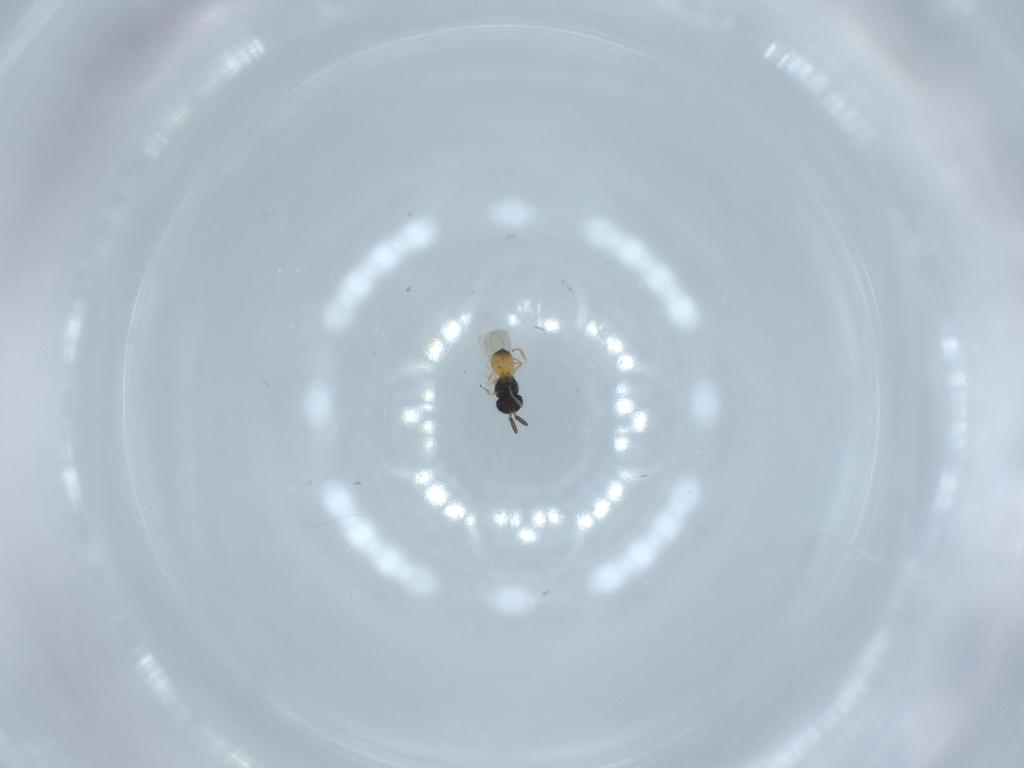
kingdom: Animalia
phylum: Arthropoda
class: Insecta
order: Hymenoptera
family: Scelionidae
